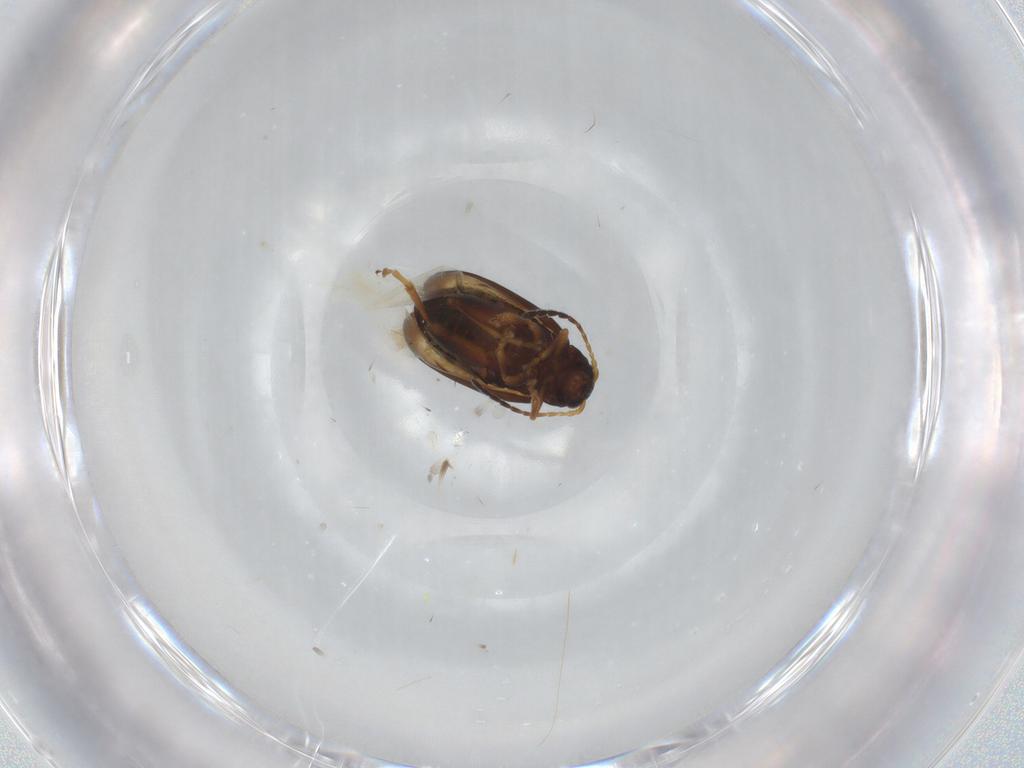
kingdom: Animalia
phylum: Arthropoda
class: Insecta
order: Coleoptera
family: Chrysomelidae
